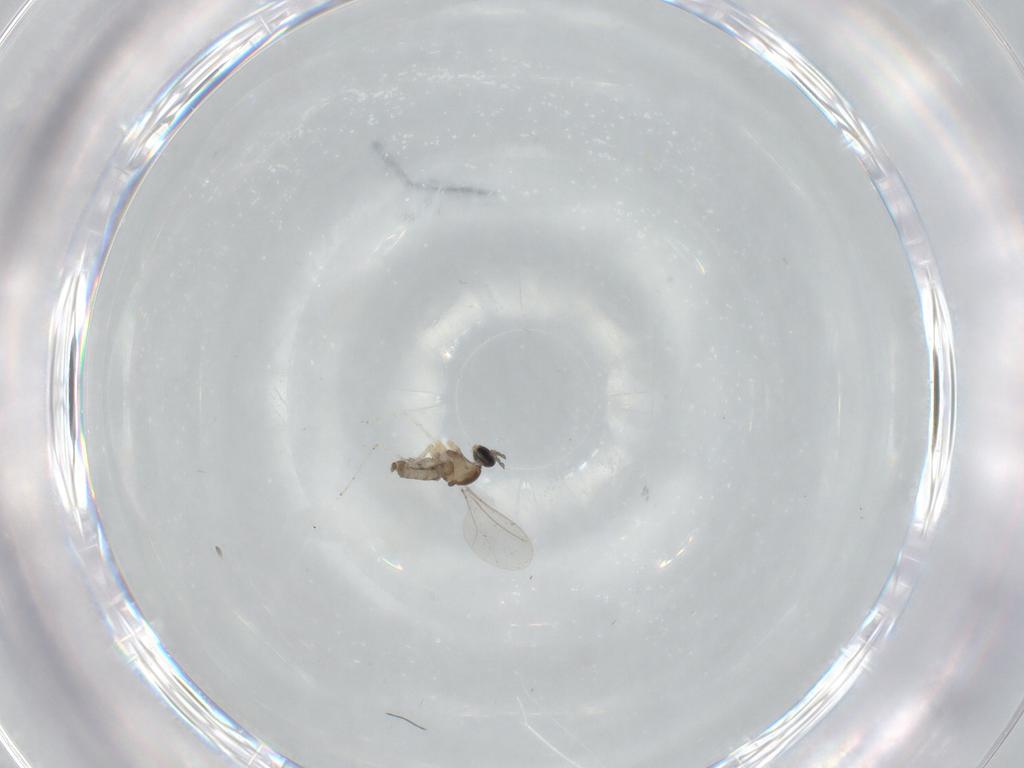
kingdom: Animalia
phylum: Arthropoda
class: Insecta
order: Diptera
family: Cecidomyiidae
